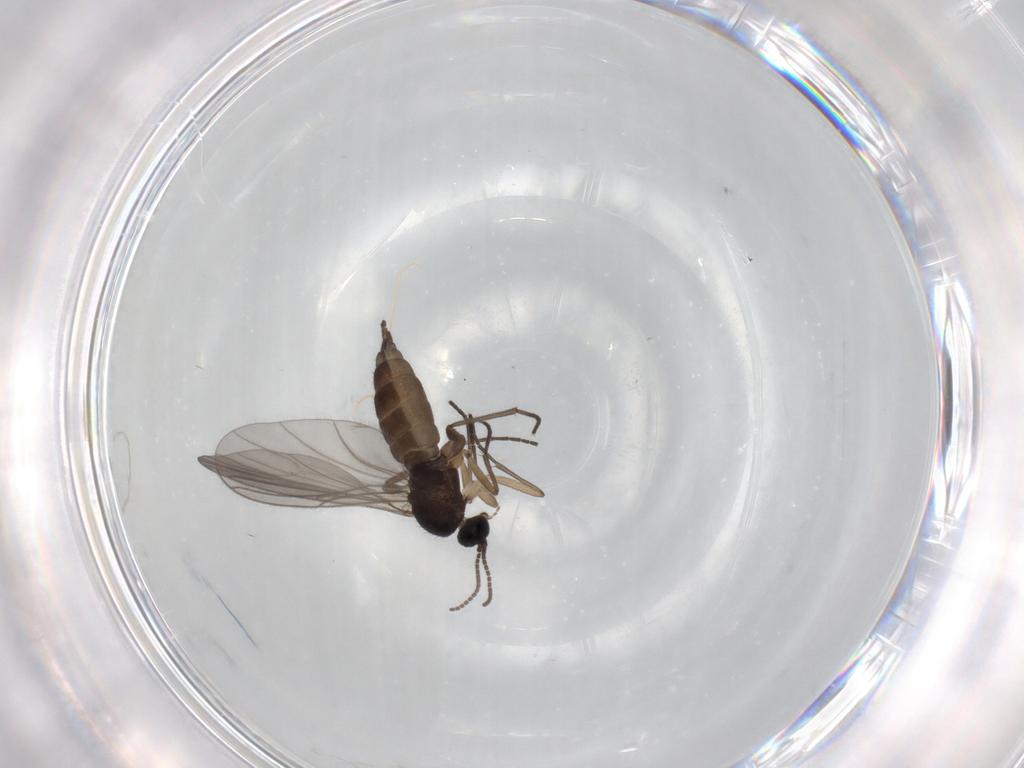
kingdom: Animalia
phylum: Arthropoda
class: Insecta
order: Diptera
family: Sciaridae
